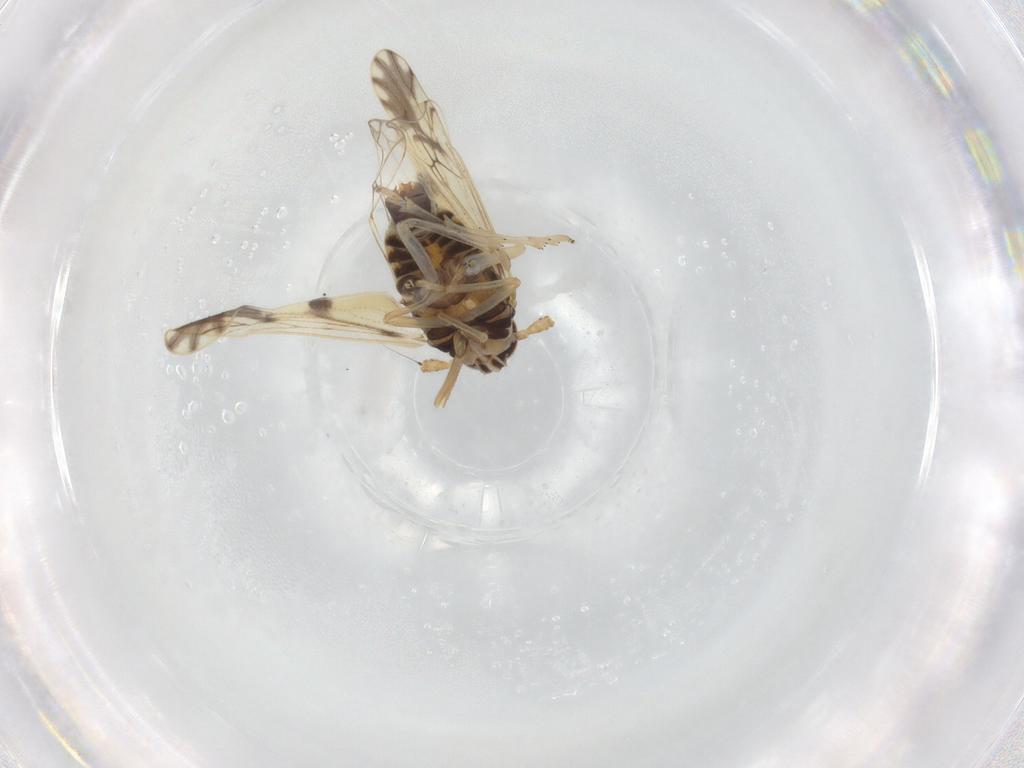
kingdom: Animalia
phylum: Arthropoda
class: Insecta
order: Hemiptera
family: Delphacidae
